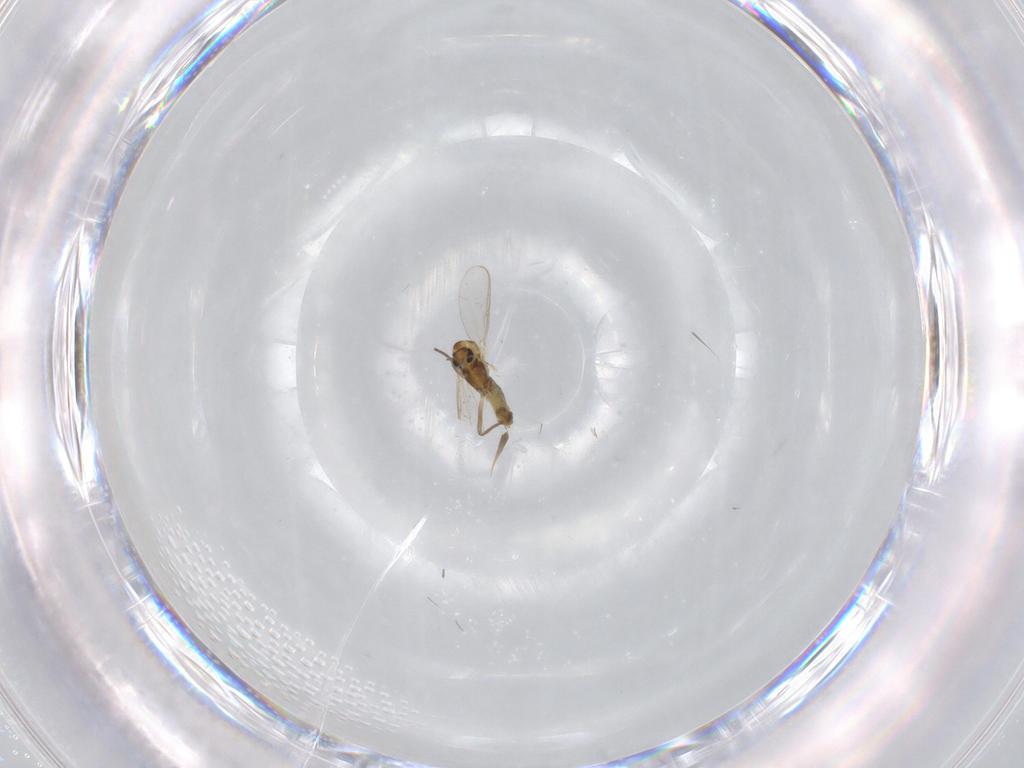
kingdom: Animalia
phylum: Arthropoda
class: Insecta
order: Diptera
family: Chironomidae
